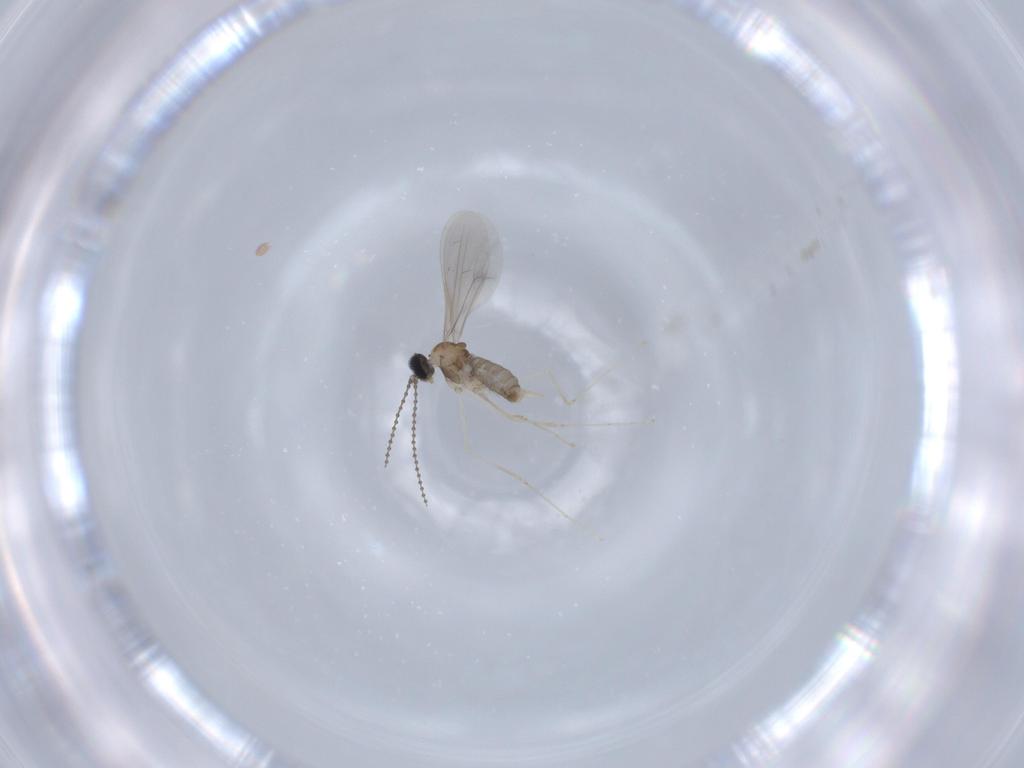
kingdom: Animalia
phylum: Arthropoda
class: Insecta
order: Diptera
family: Cecidomyiidae
